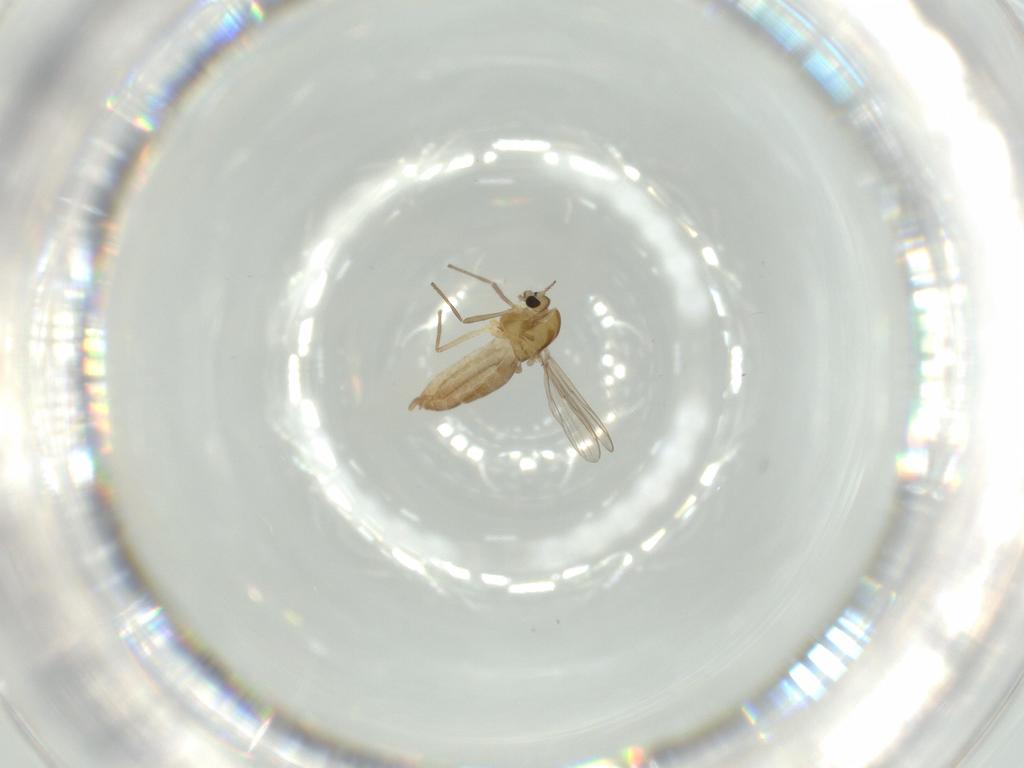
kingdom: Animalia
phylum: Arthropoda
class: Insecta
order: Diptera
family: Chironomidae
